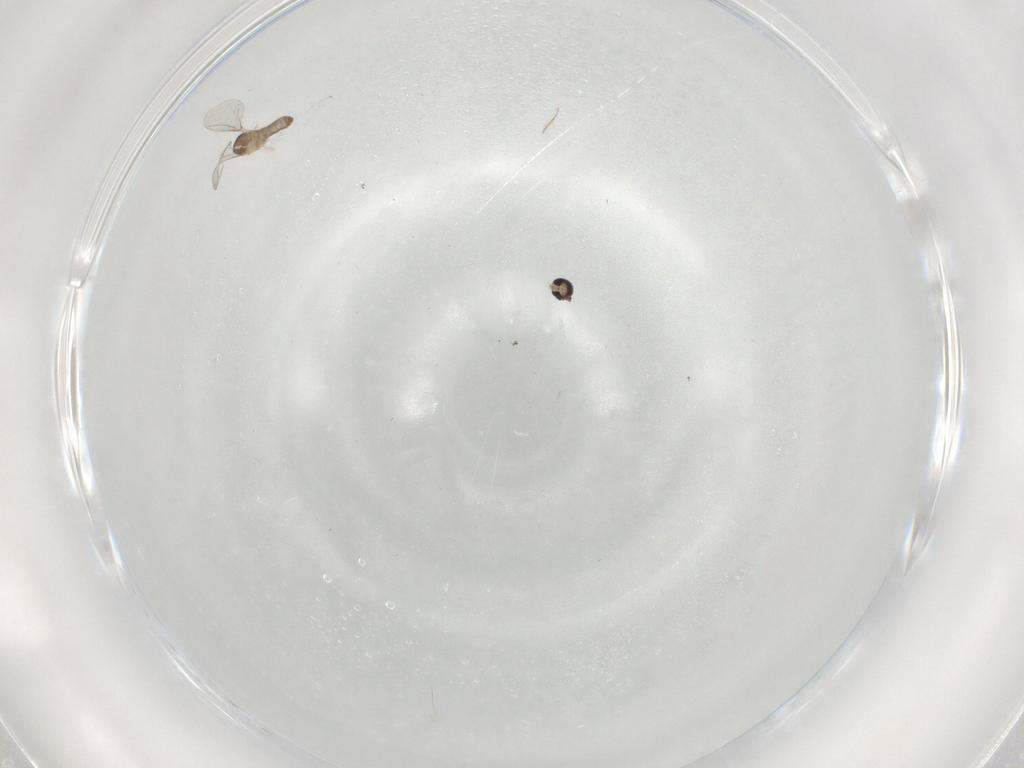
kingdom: Animalia
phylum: Arthropoda
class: Insecta
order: Diptera
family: Cecidomyiidae
